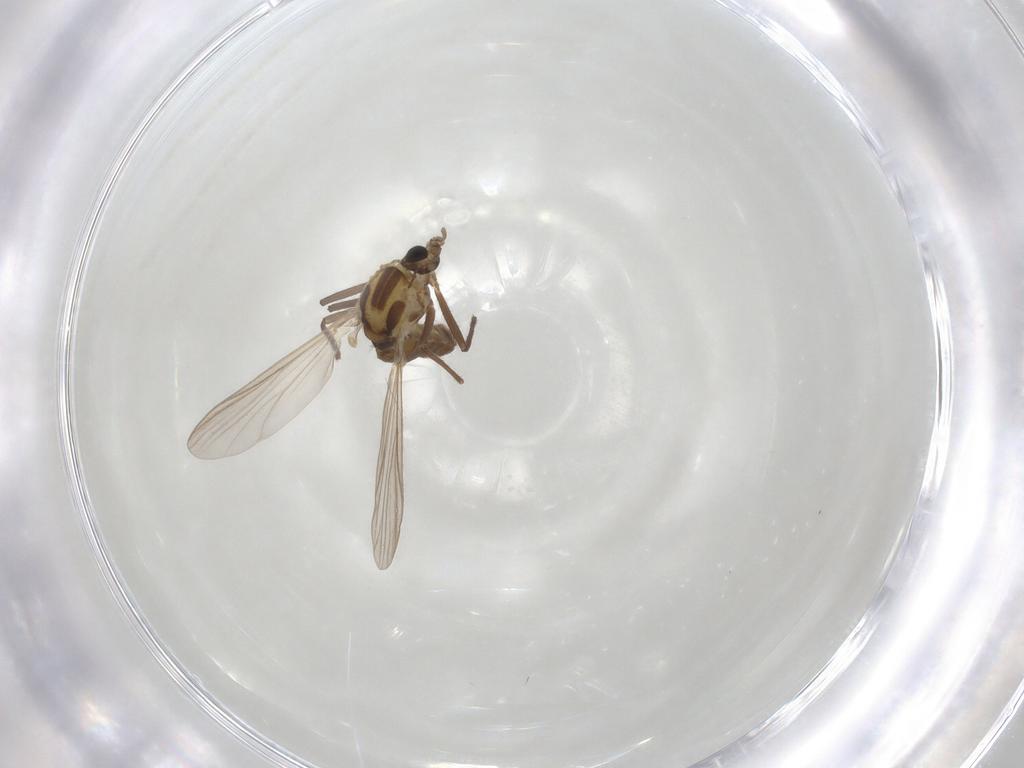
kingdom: Animalia
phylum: Arthropoda
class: Insecta
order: Diptera
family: Chironomidae
